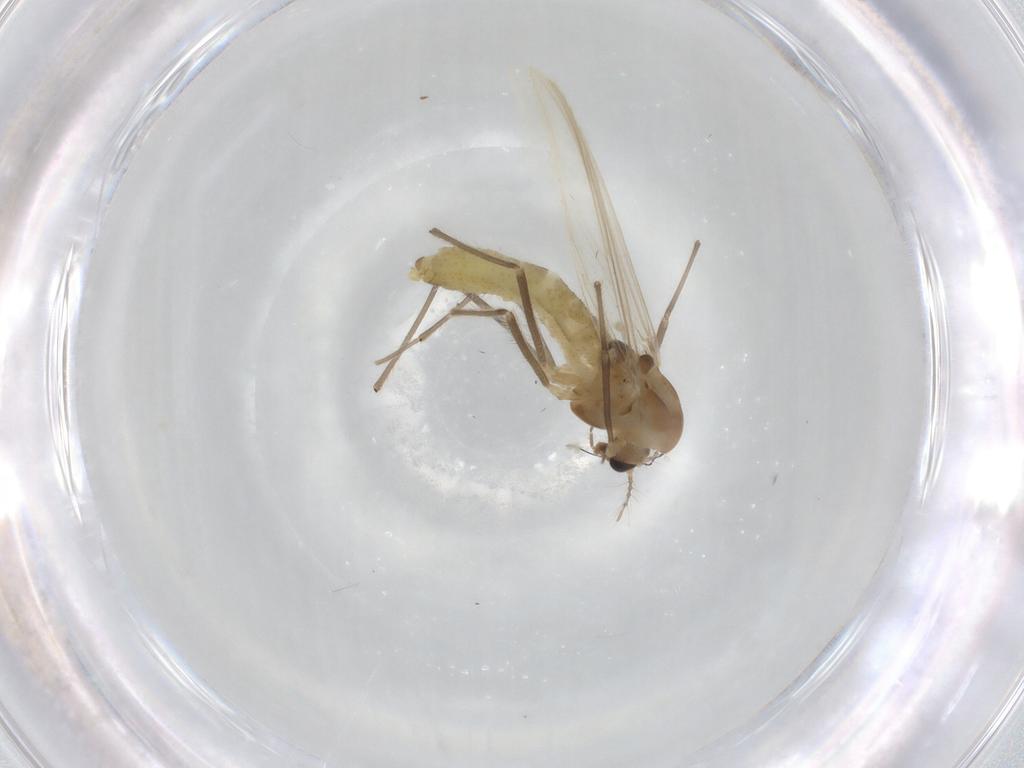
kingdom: Animalia
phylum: Arthropoda
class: Insecta
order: Diptera
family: Chironomidae
